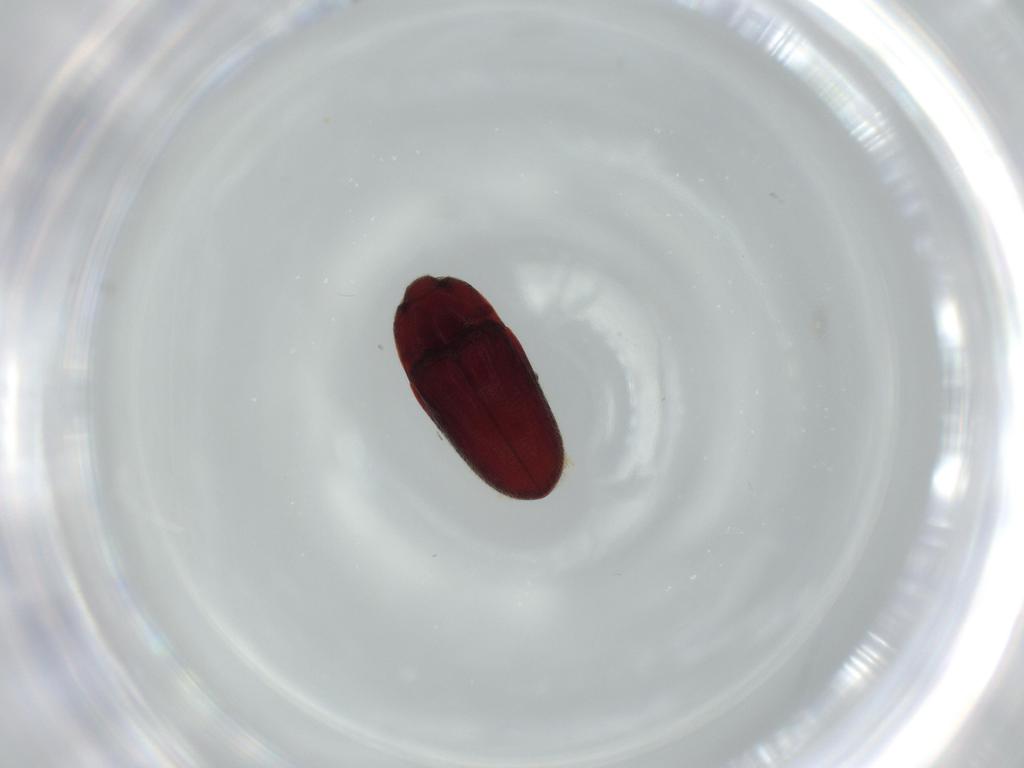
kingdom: Animalia
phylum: Arthropoda
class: Insecta
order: Coleoptera
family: Throscidae
